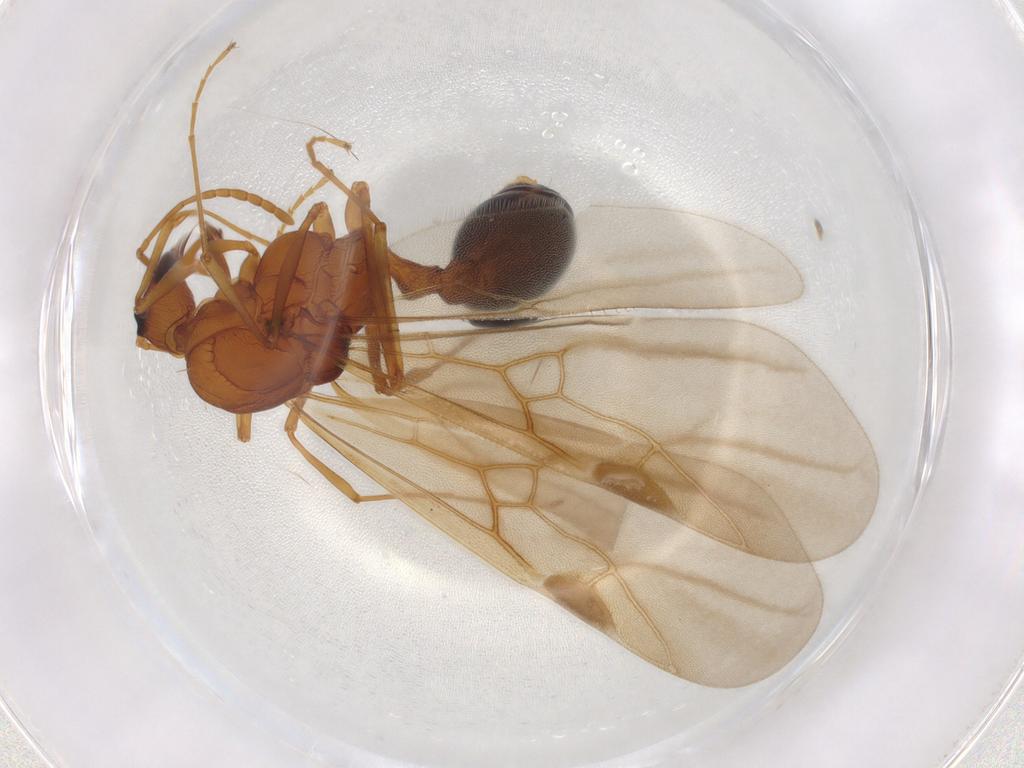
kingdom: Animalia
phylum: Arthropoda
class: Insecta
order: Hymenoptera
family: Formicidae
